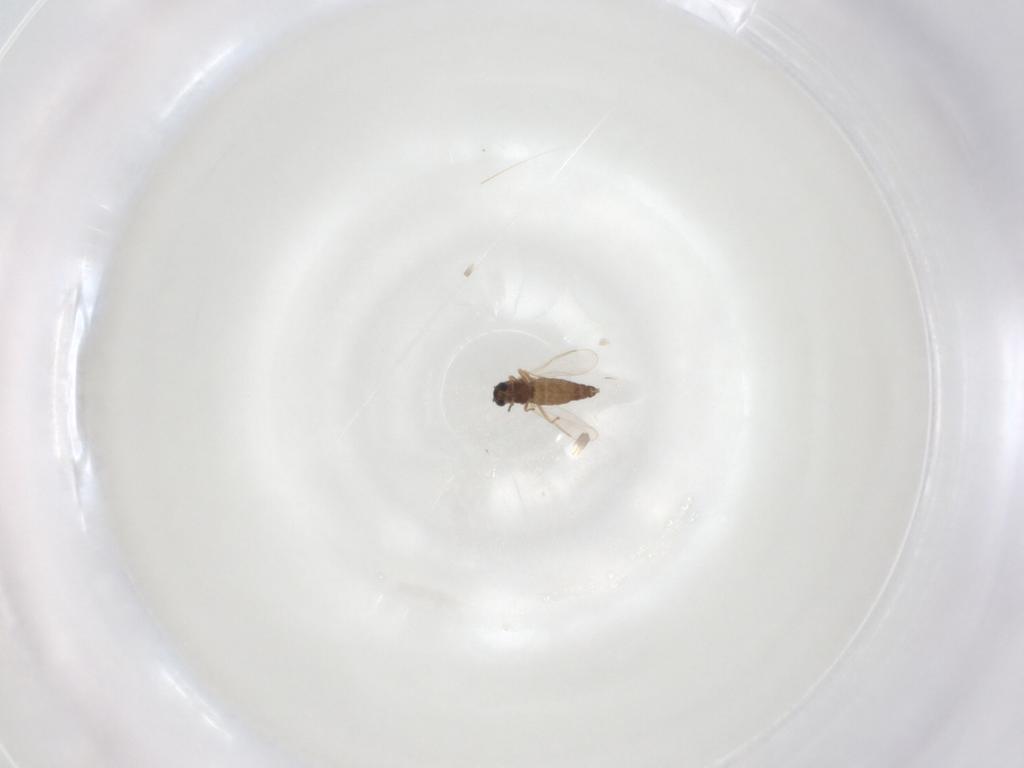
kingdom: Animalia
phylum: Arthropoda
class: Insecta
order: Diptera
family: Chironomidae
